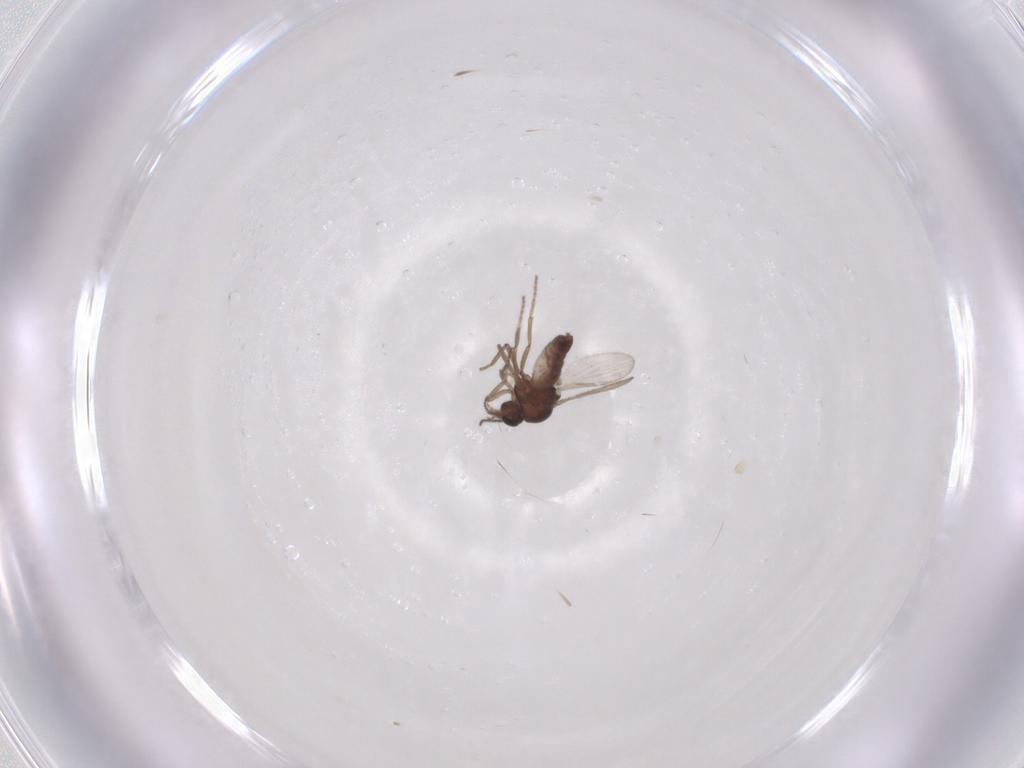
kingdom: Animalia
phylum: Arthropoda
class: Insecta
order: Diptera
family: Ceratopogonidae
